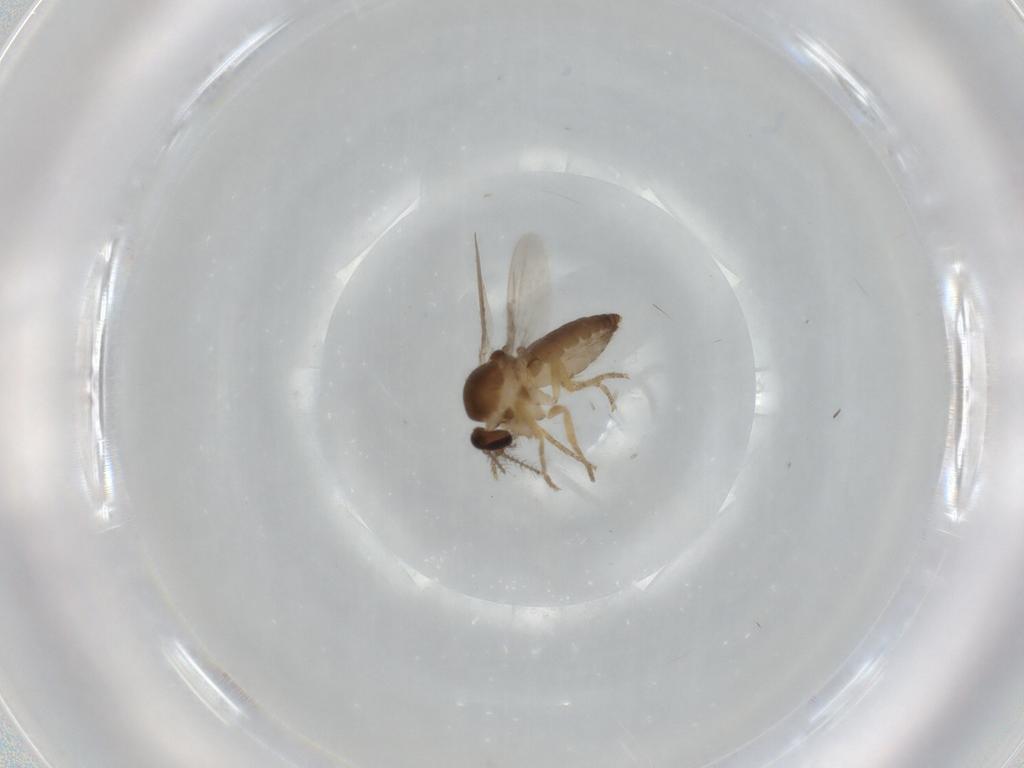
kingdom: Animalia
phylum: Arthropoda
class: Insecta
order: Diptera
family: Ceratopogonidae
